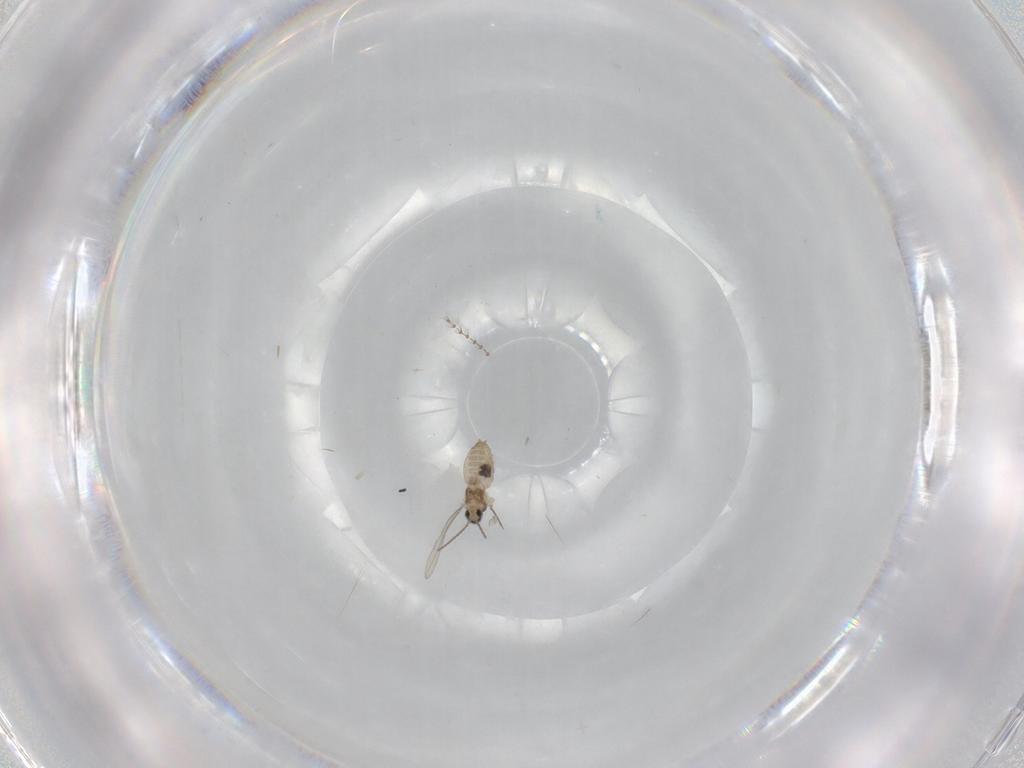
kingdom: Animalia
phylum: Arthropoda
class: Insecta
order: Diptera
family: Cecidomyiidae
